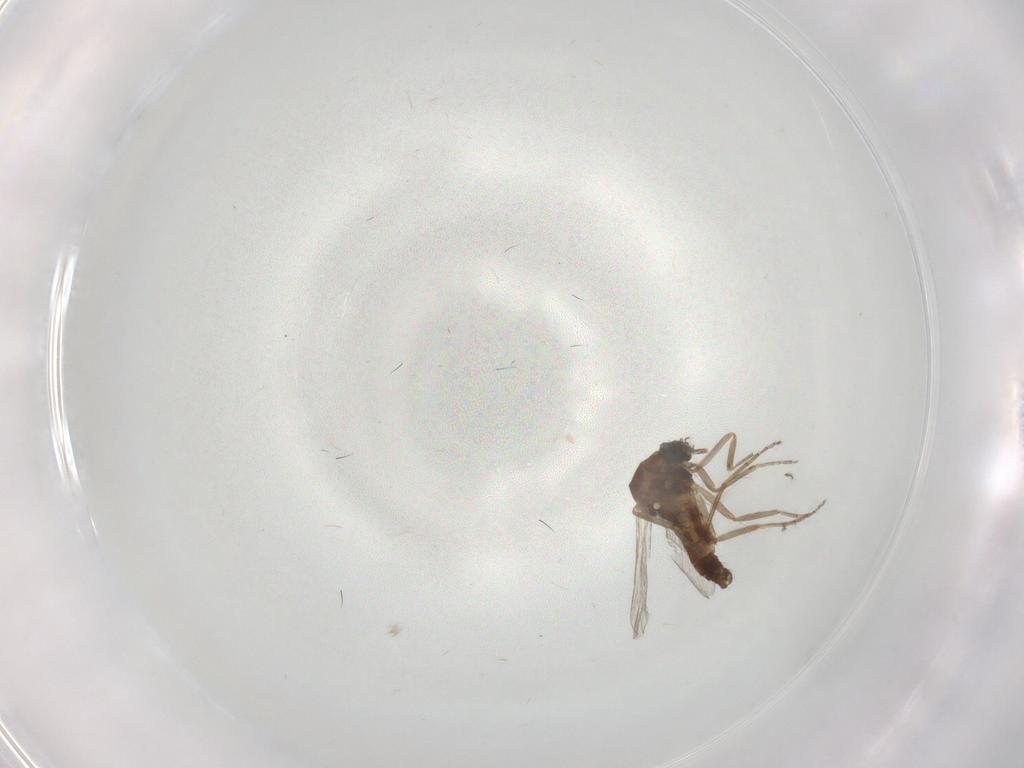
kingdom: Animalia
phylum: Arthropoda
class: Insecta
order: Diptera
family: Ceratopogonidae
